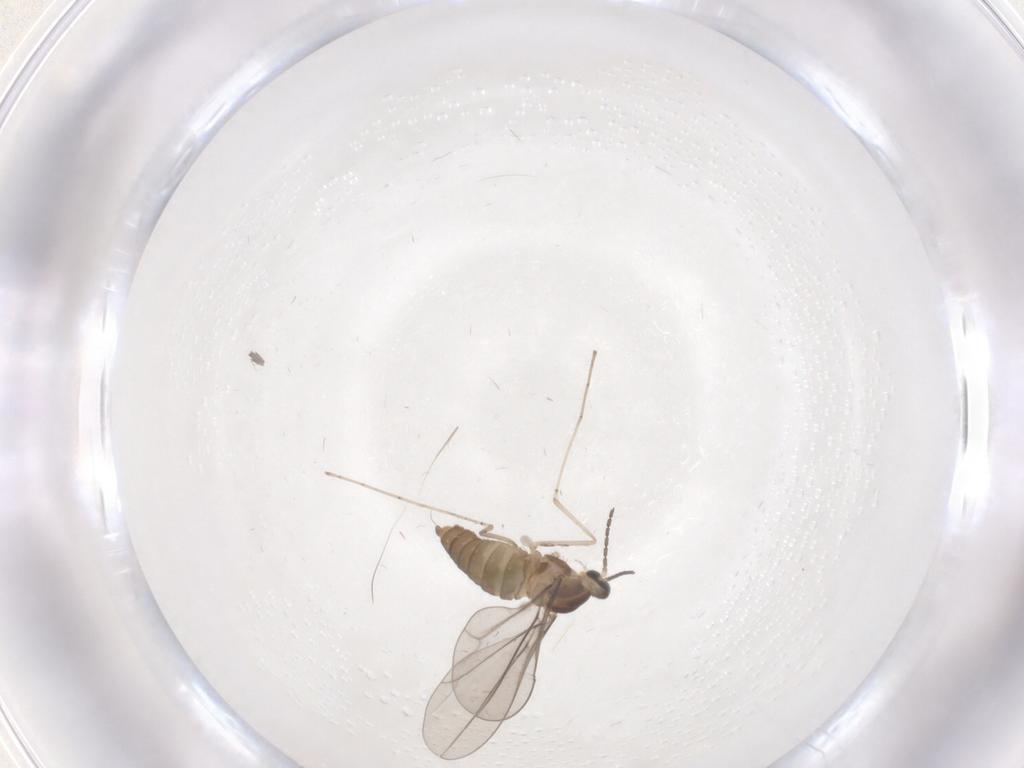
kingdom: Animalia
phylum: Arthropoda
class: Insecta
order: Diptera
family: Cecidomyiidae
